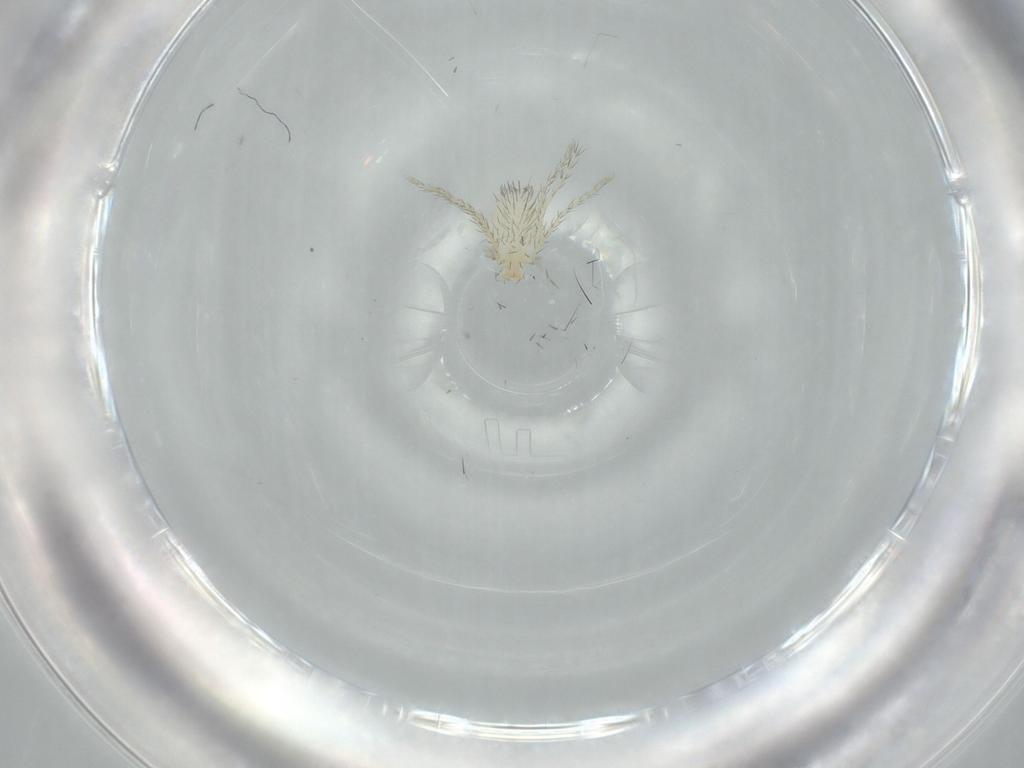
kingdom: Animalia
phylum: Arthropoda
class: Arachnida
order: Trombidiformes
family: Erythraeidae
